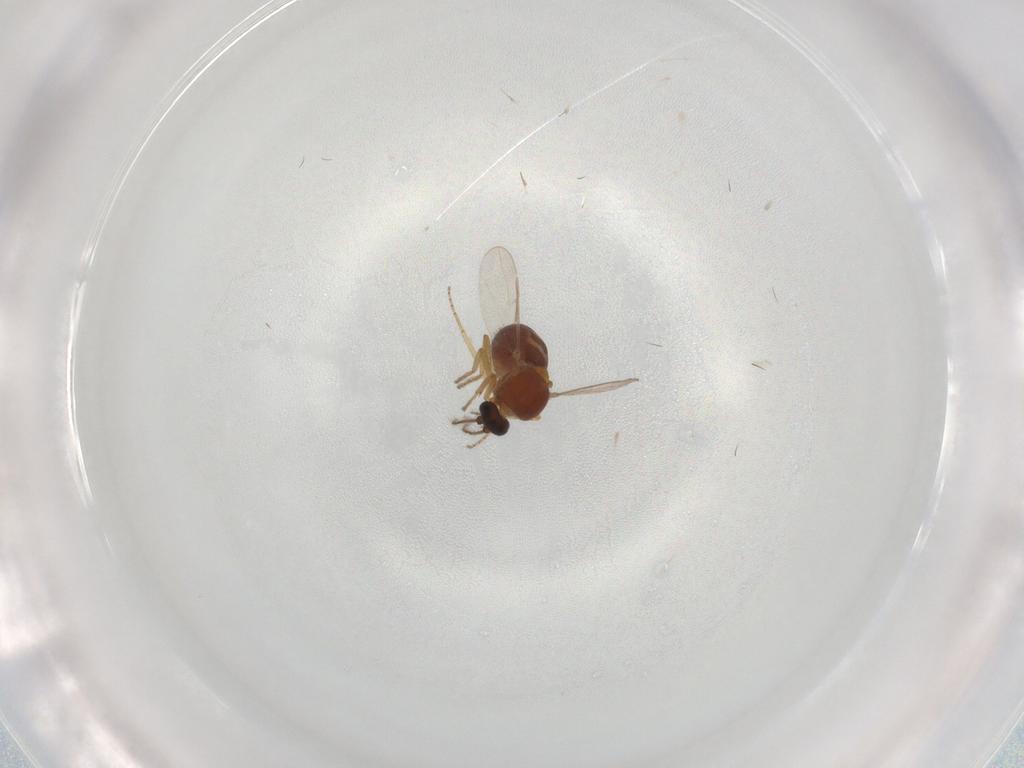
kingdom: Animalia
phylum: Arthropoda
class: Insecta
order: Diptera
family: Ceratopogonidae
